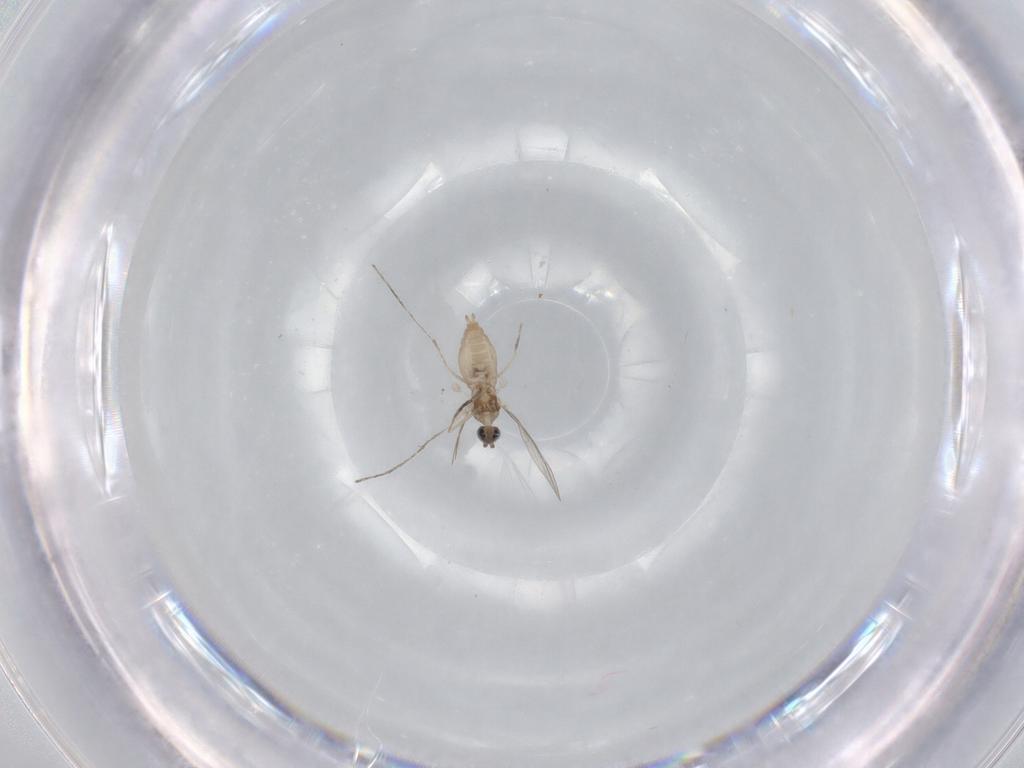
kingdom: Animalia
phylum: Arthropoda
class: Insecta
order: Diptera
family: Cecidomyiidae
